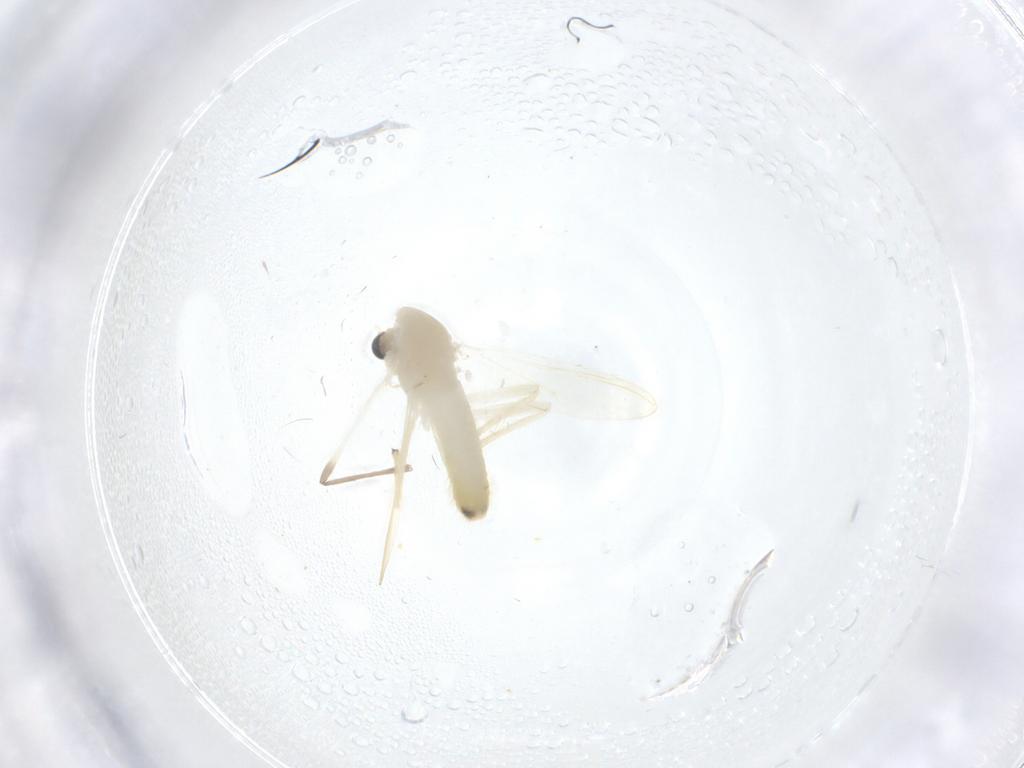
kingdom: Animalia
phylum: Arthropoda
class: Insecta
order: Diptera
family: Chironomidae
